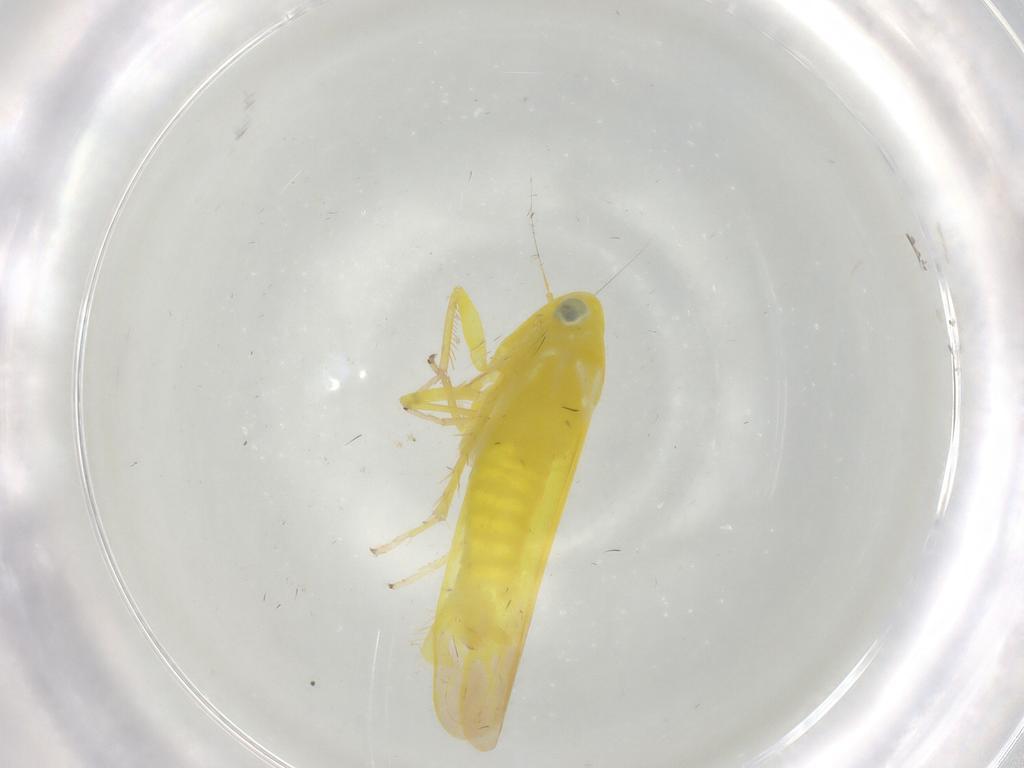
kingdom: Animalia
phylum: Arthropoda
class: Insecta
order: Hemiptera
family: Cicadellidae
